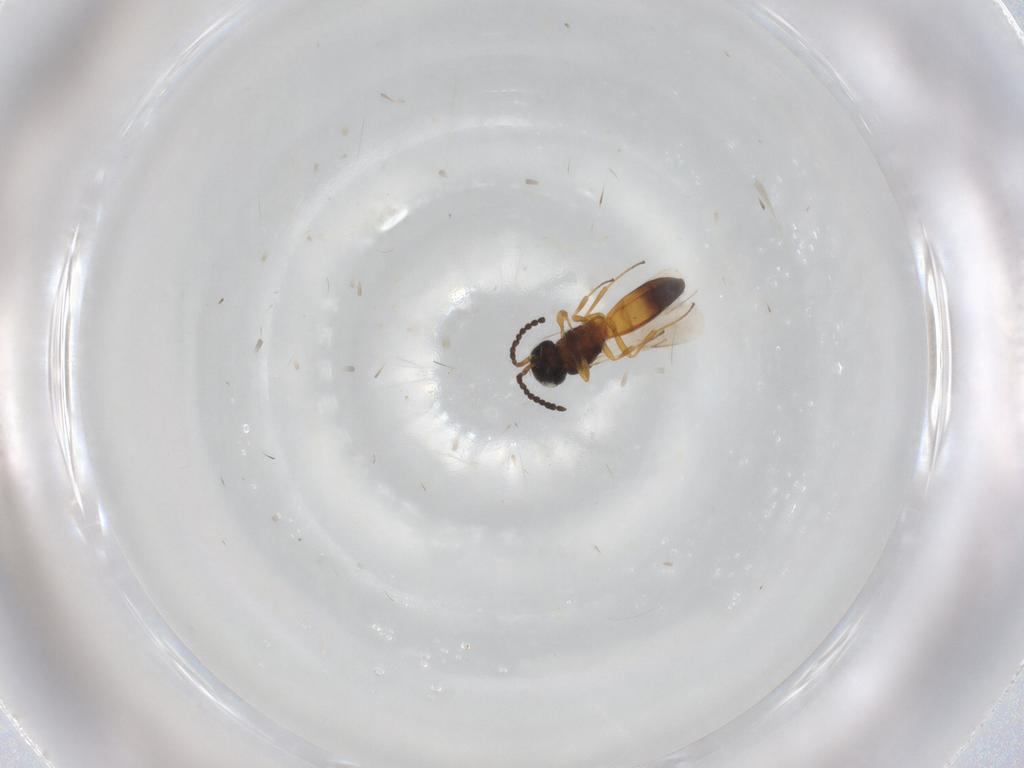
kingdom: Animalia
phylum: Arthropoda
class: Insecta
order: Hymenoptera
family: Scelionidae
